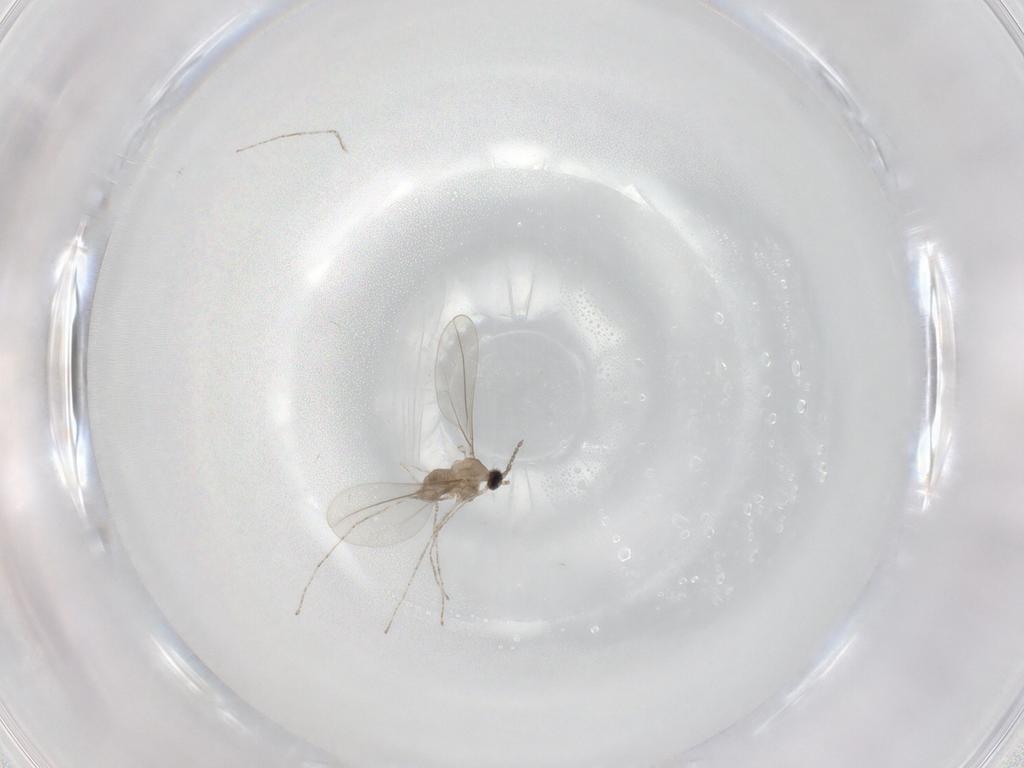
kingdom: Animalia
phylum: Arthropoda
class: Insecta
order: Diptera
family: Cecidomyiidae
